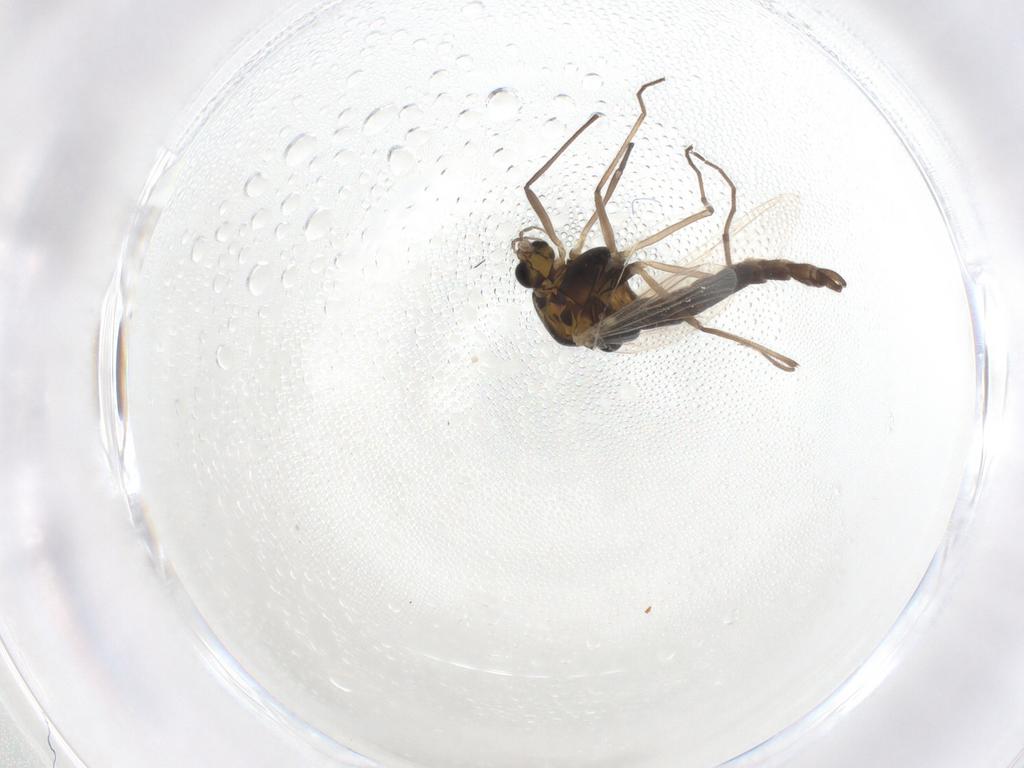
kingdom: Animalia
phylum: Arthropoda
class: Insecta
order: Diptera
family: Chironomidae
